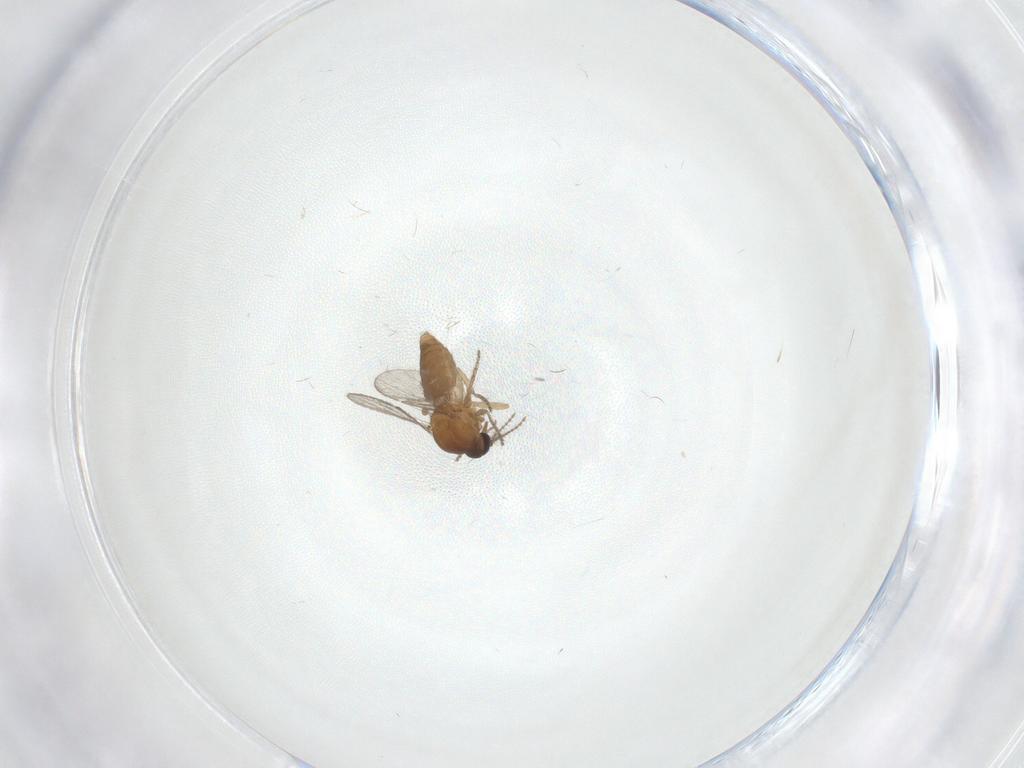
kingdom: Animalia
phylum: Arthropoda
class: Insecta
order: Diptera
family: Ceratopogonidae
